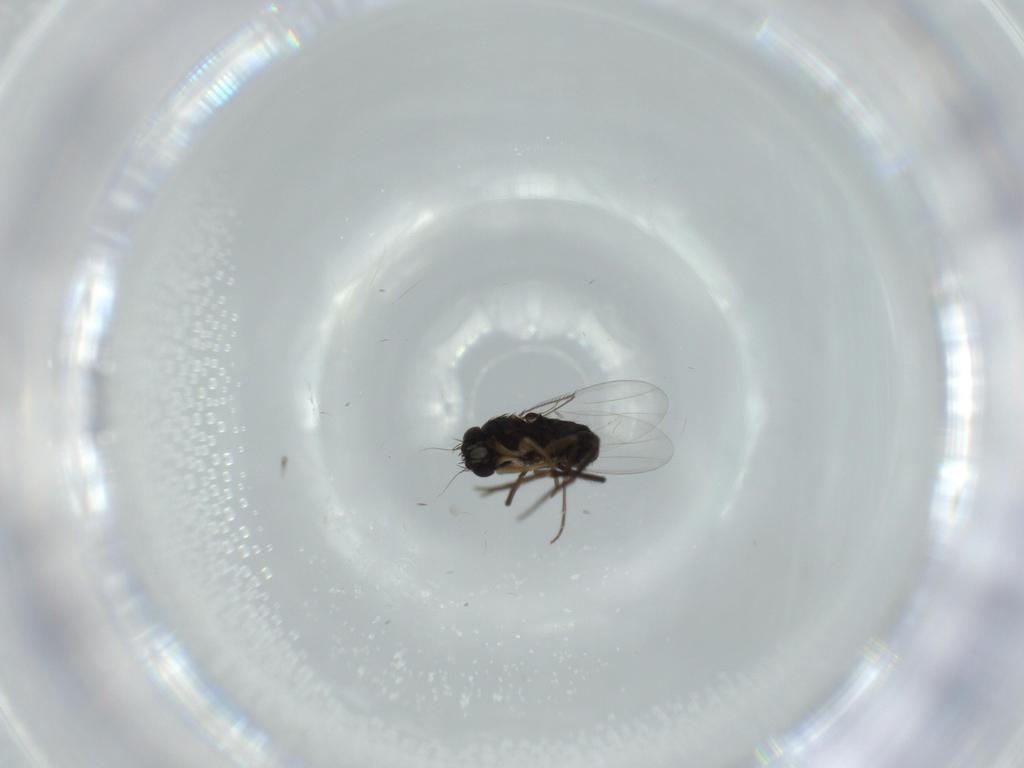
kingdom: Animalia
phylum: Arthropoda
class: Insecta
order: Diptera
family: Phoridae
